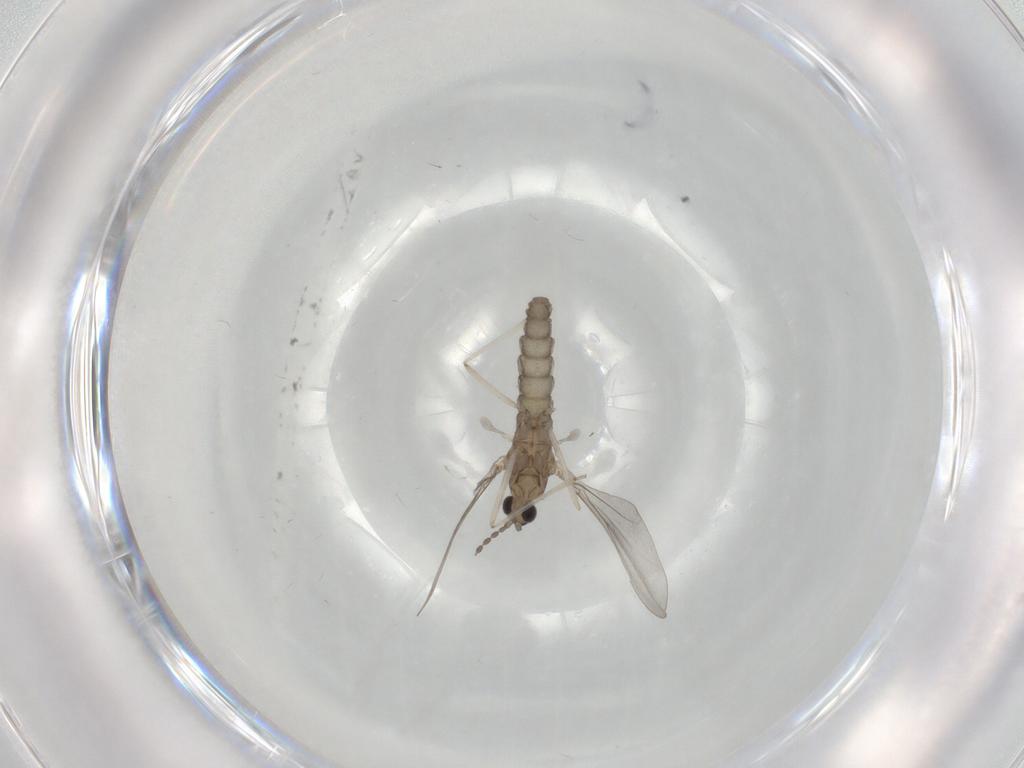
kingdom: Animalia
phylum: Arthropoda
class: Insecta
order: Diptera
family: Cecidomyiidae
